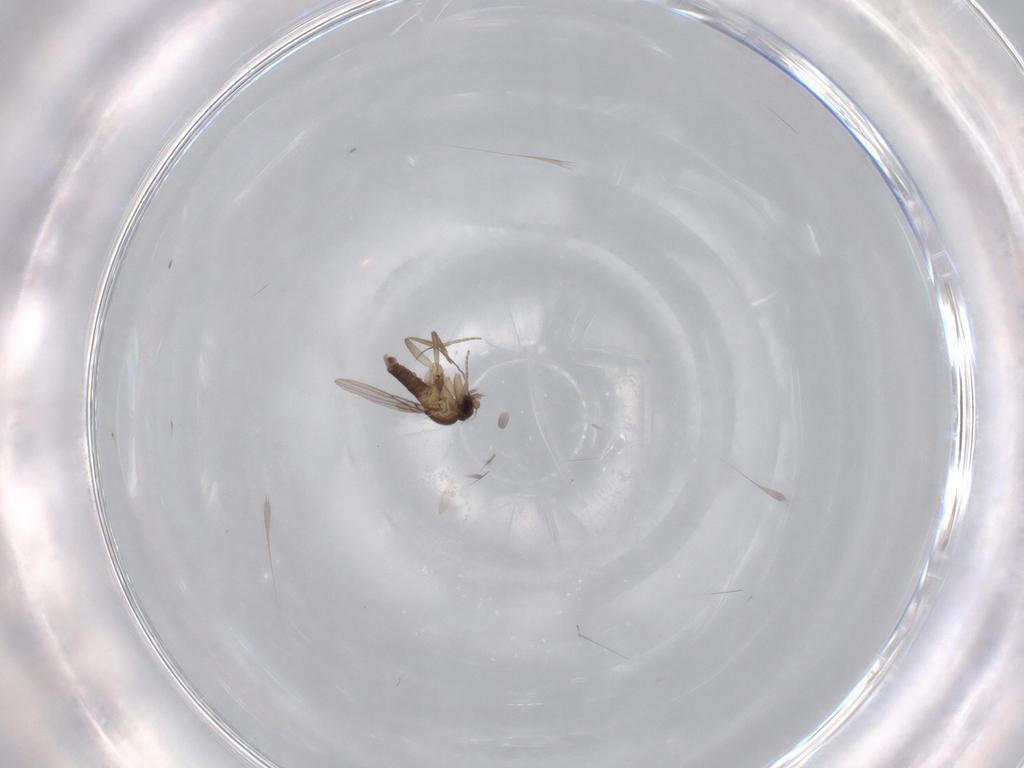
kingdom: Animalia
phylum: Arthropoda
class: Insecta
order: Diptera
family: Phoridae
